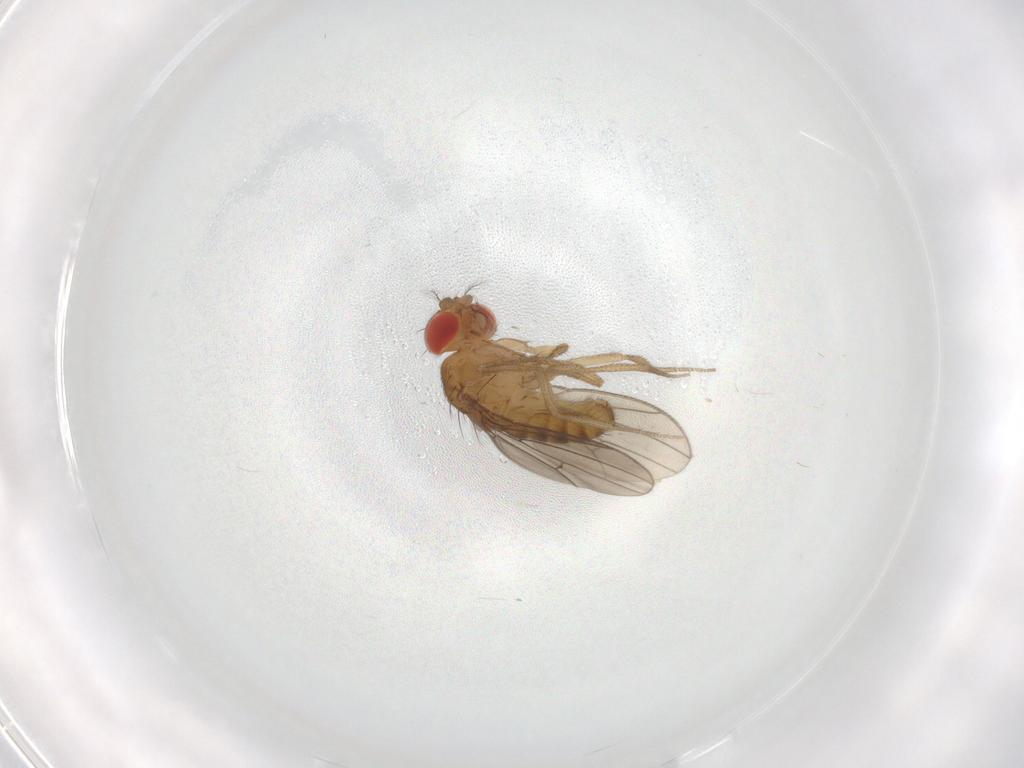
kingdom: Animalia
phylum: Arthropoda
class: Insecta
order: Diptera
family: Drosophilidae
